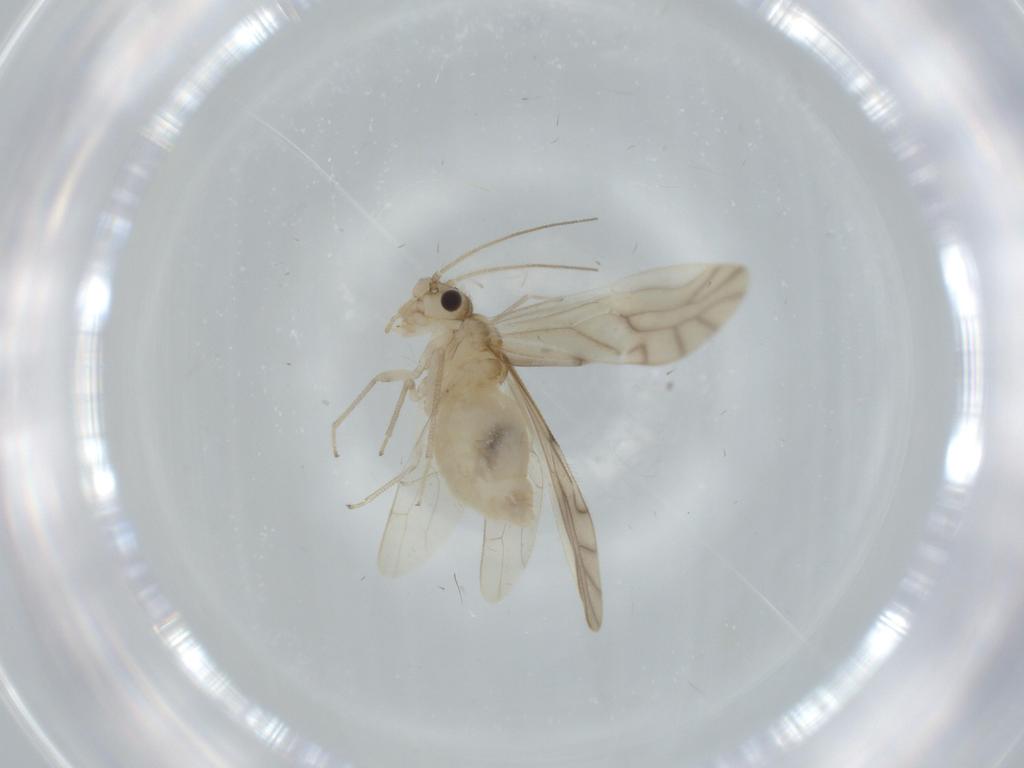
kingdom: Animalia
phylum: Arthropoda
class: Insecta
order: Psocodea
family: Caeciliusidae
